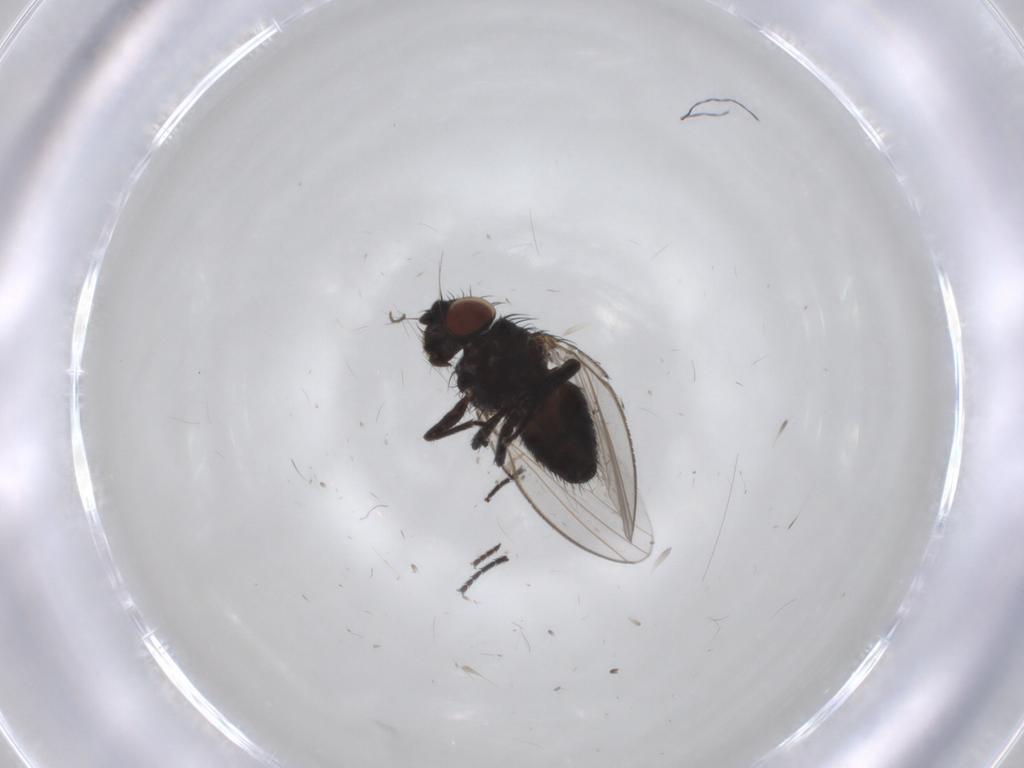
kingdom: Animalia
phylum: Arthropoda
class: Insecta
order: Diptera
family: Milichiidae
